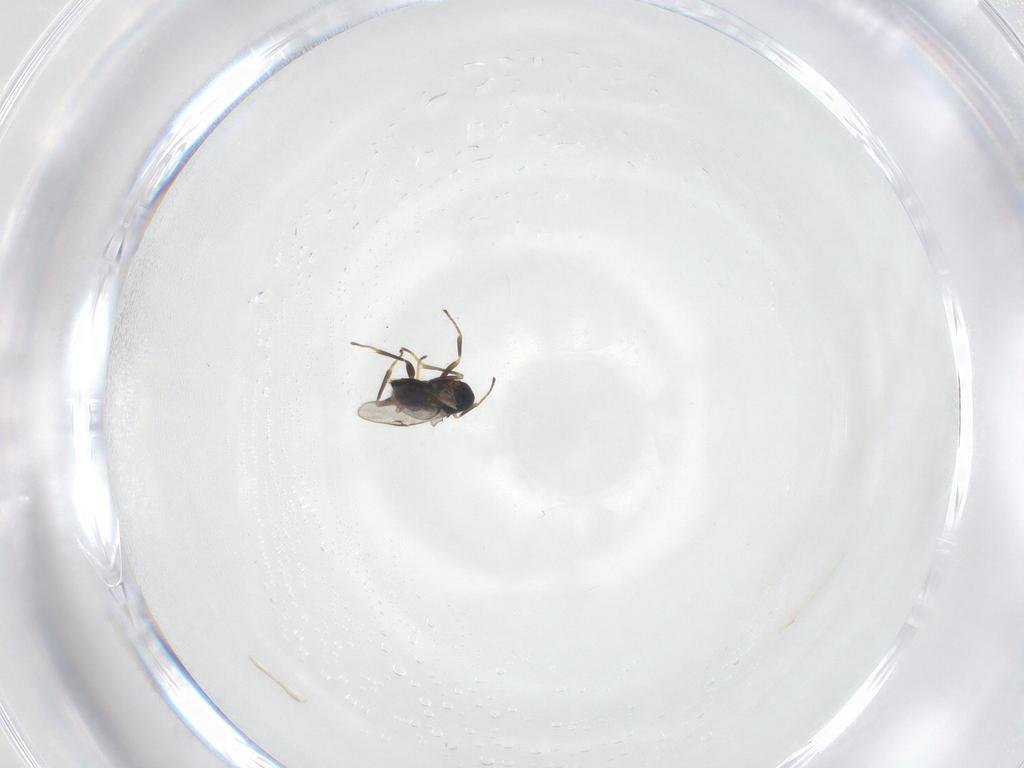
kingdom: Animalia
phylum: Arthropoda
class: Insecta
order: Hymenoptera
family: Encyrtidae
